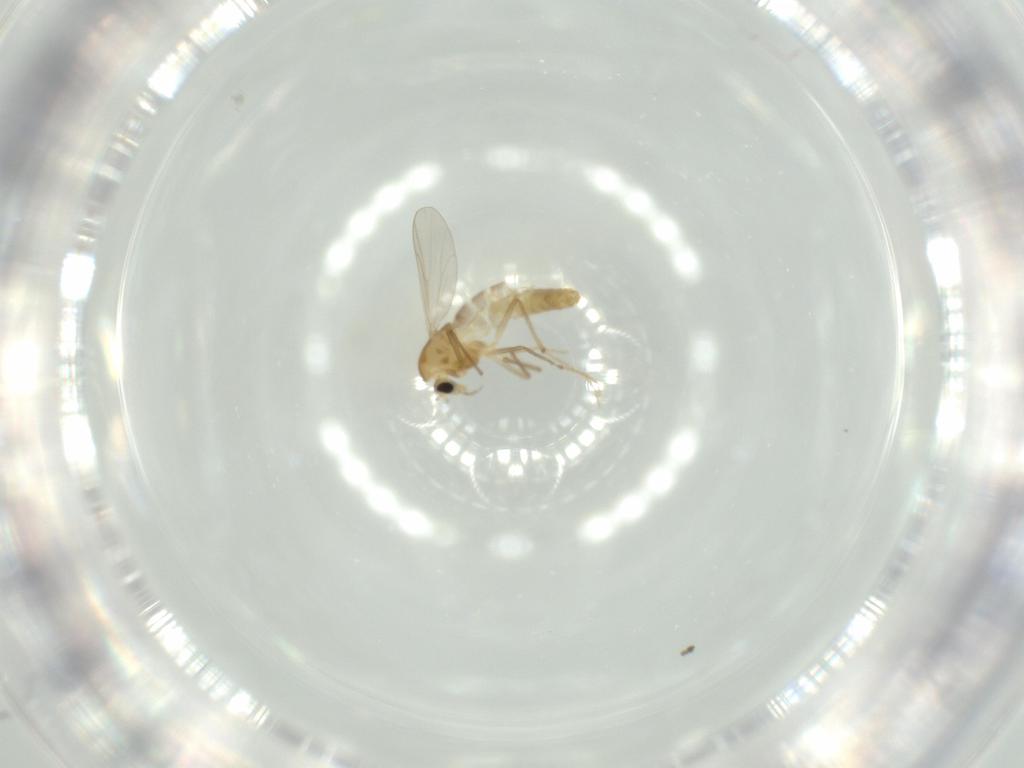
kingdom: Animalia
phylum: Arthropoda
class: Insecta
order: Diptera
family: Chironomidae
